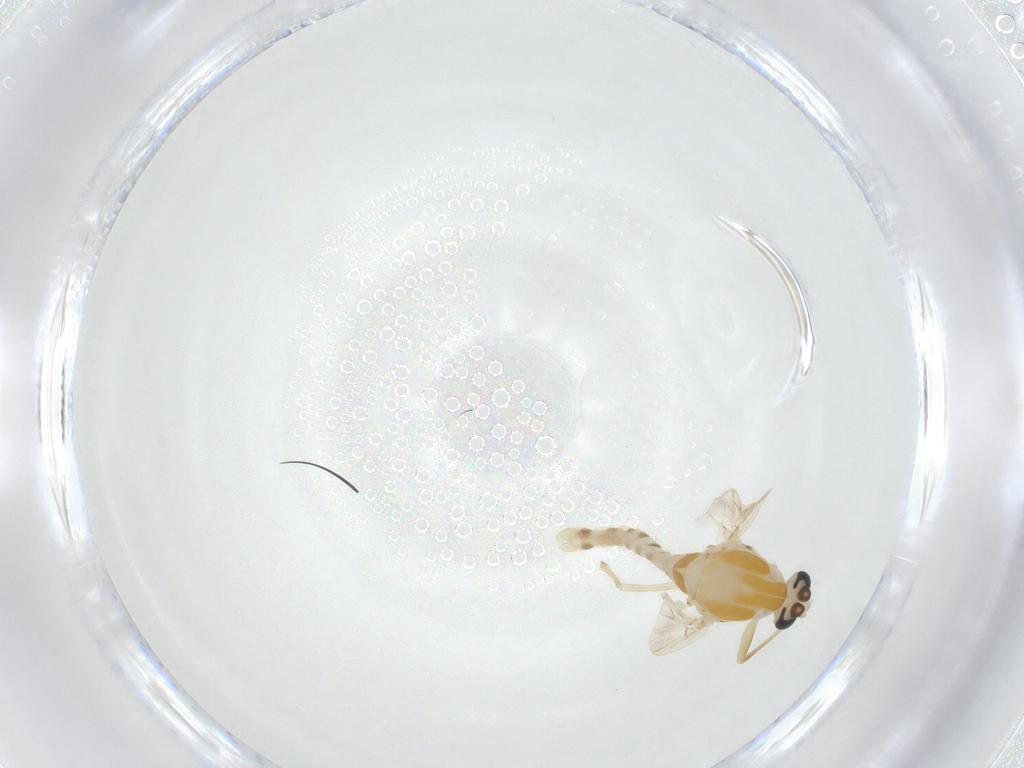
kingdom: Animalia
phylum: Arthropoda
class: Insecta
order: Diptera
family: Chironomidae
